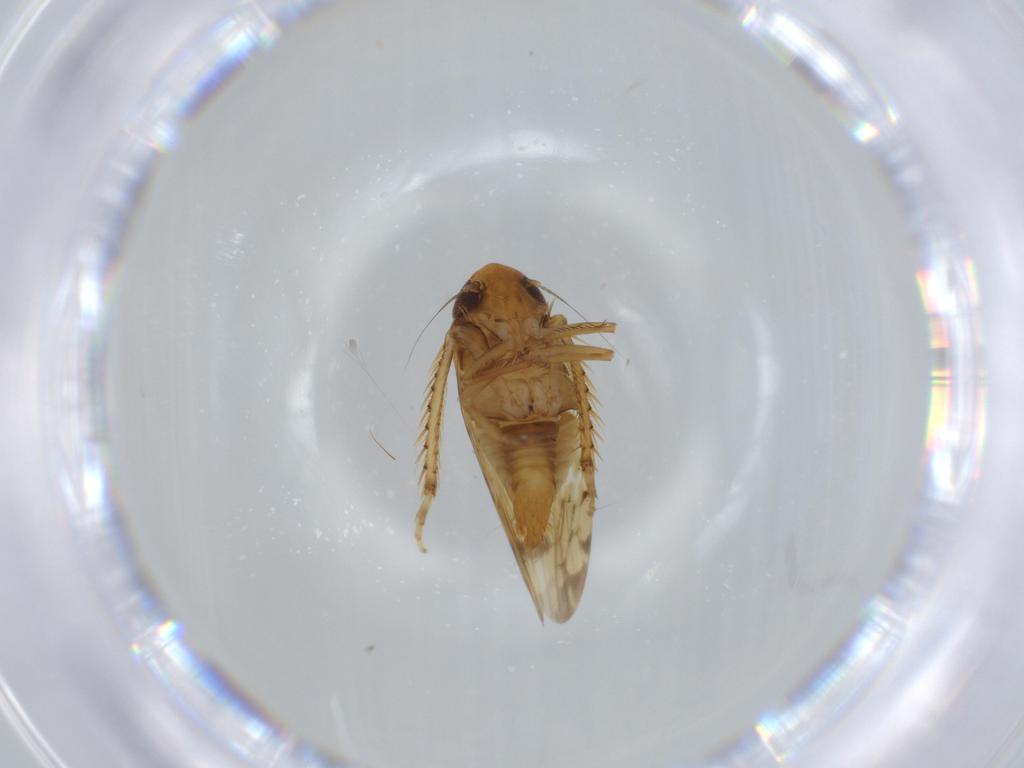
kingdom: Animalia
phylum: Arthropoda
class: Insecta
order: Hemiptera
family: Cicadellidae
